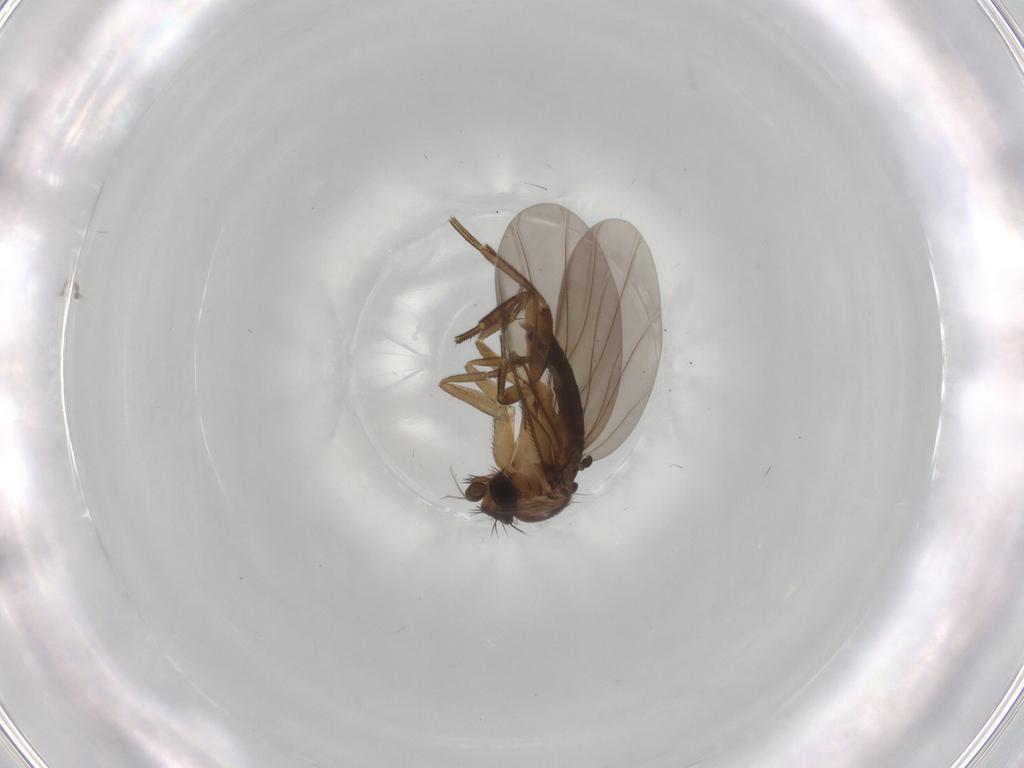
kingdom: Animalia
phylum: Arthropoda
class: Insecta
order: Diptera
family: Phoridae
